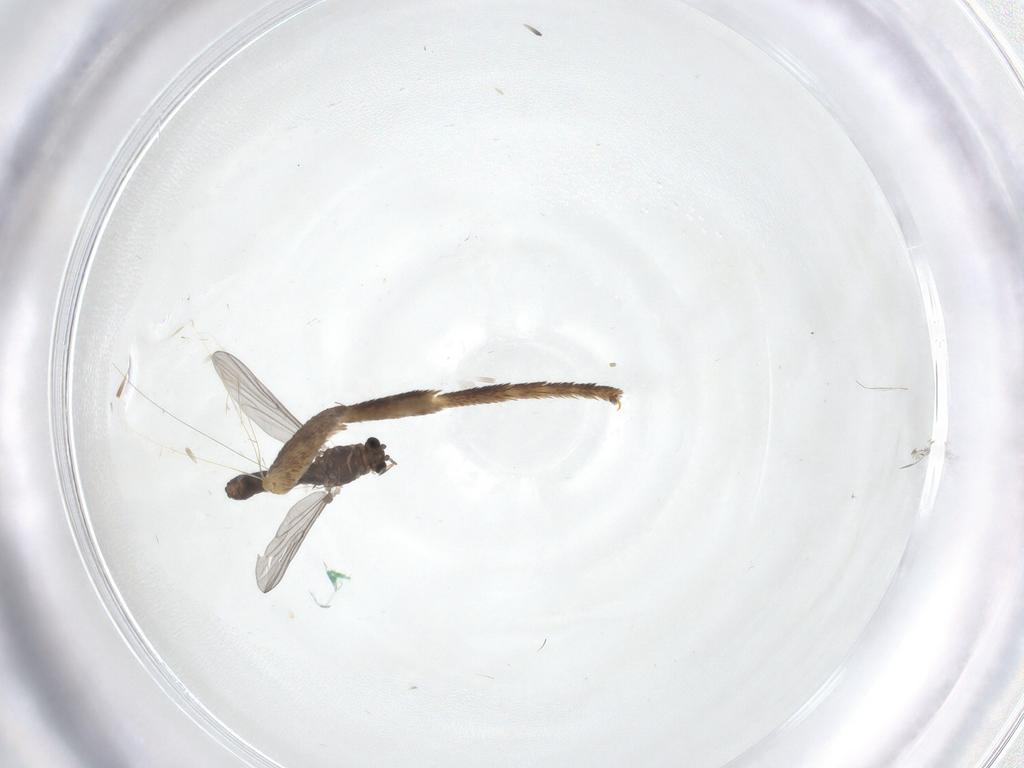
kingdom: Animalia
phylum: Arthropoda
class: Insecta
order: Diptera
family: Chironomidae
